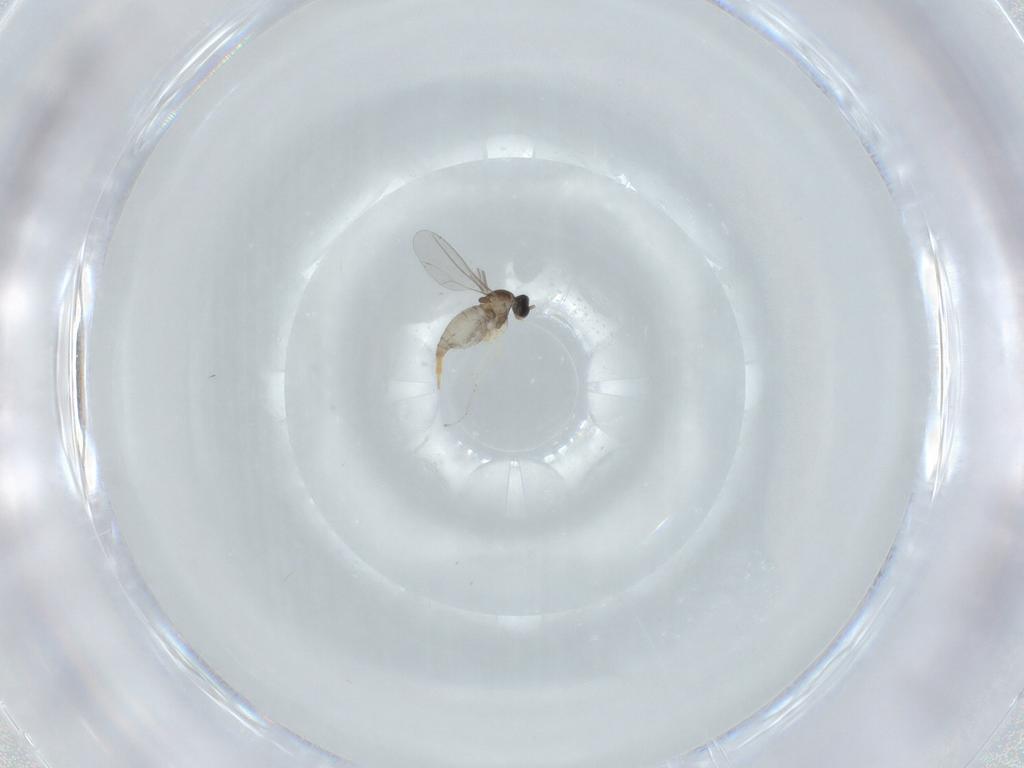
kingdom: Animalia
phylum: Arthropoda
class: Insecta
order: Diptera
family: Cecidomyiidae
